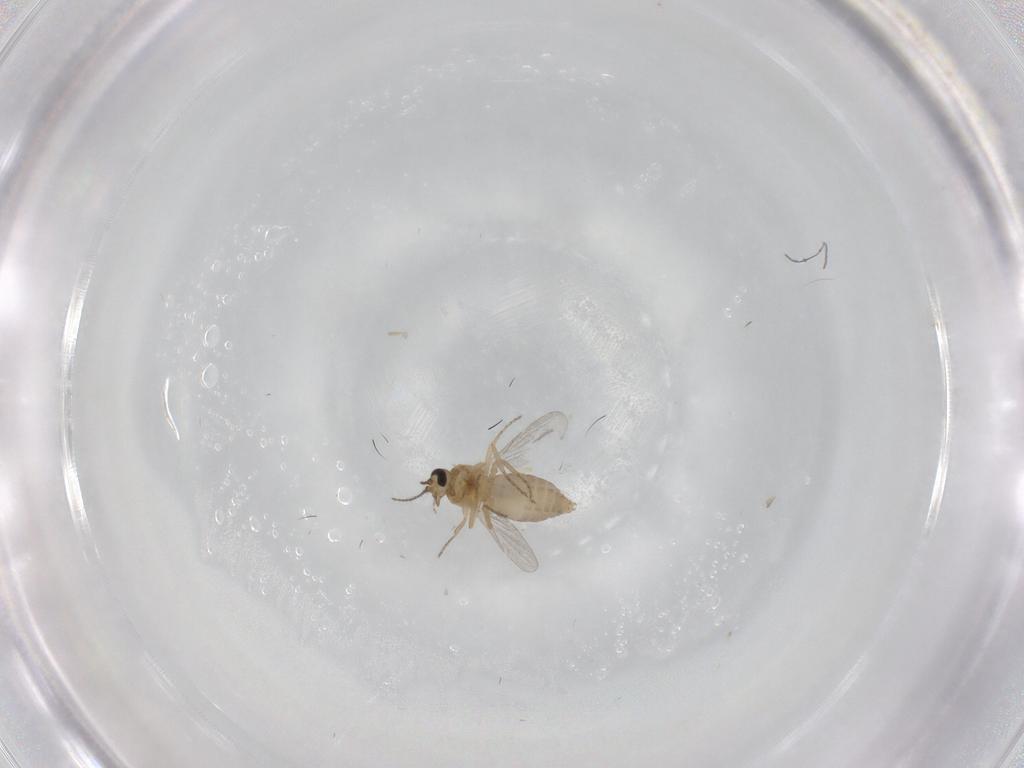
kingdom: Animalia
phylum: Arthropoda
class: Insecta
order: Diptera
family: Ceratopogonidae
